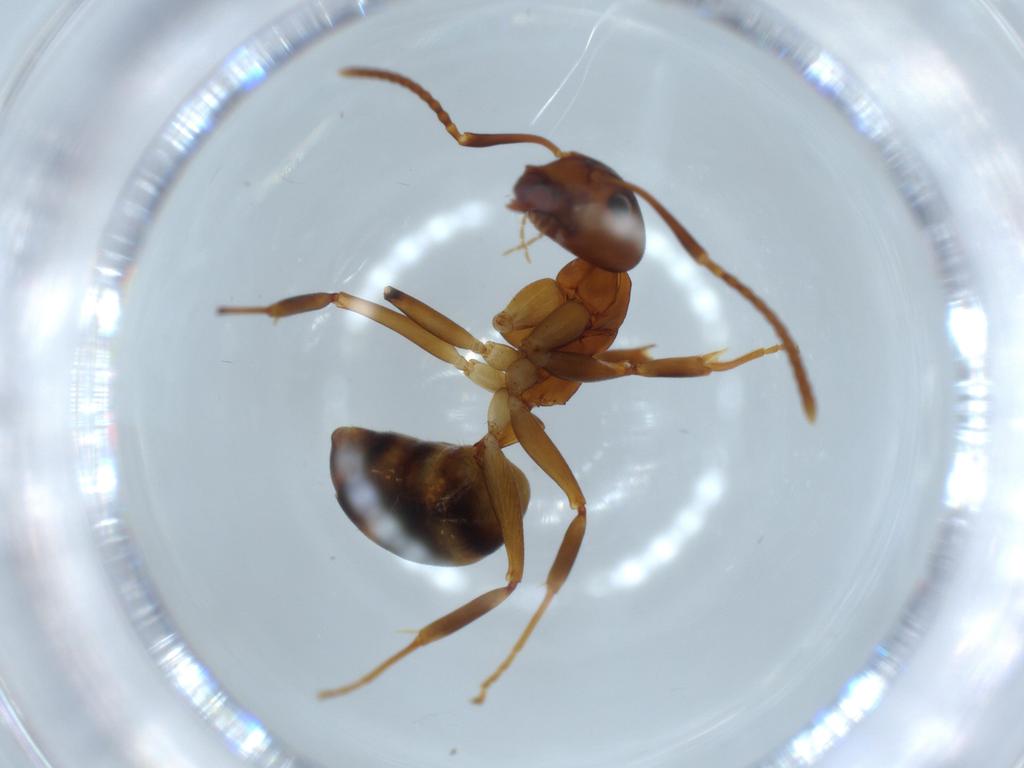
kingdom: Animalia
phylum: Arthropoda
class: Insecta
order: Hymenoptera
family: Formicidae
